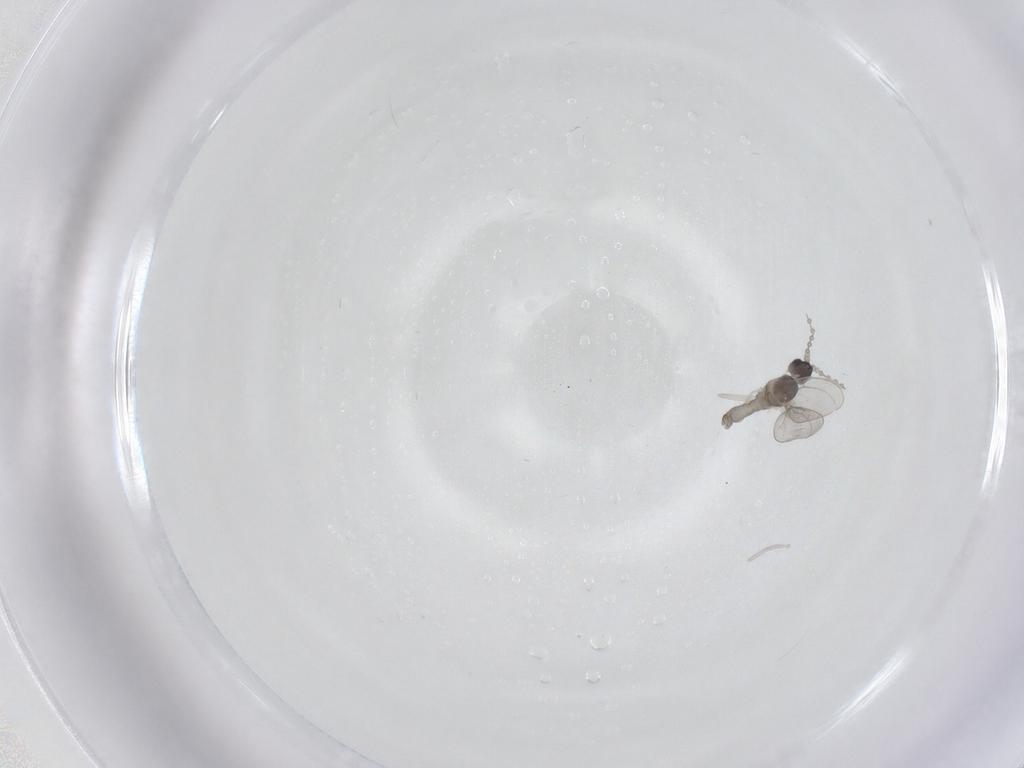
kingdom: Animalia
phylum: Arthropoda
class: Insecta
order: Diptera
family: Cecidomyiidae
